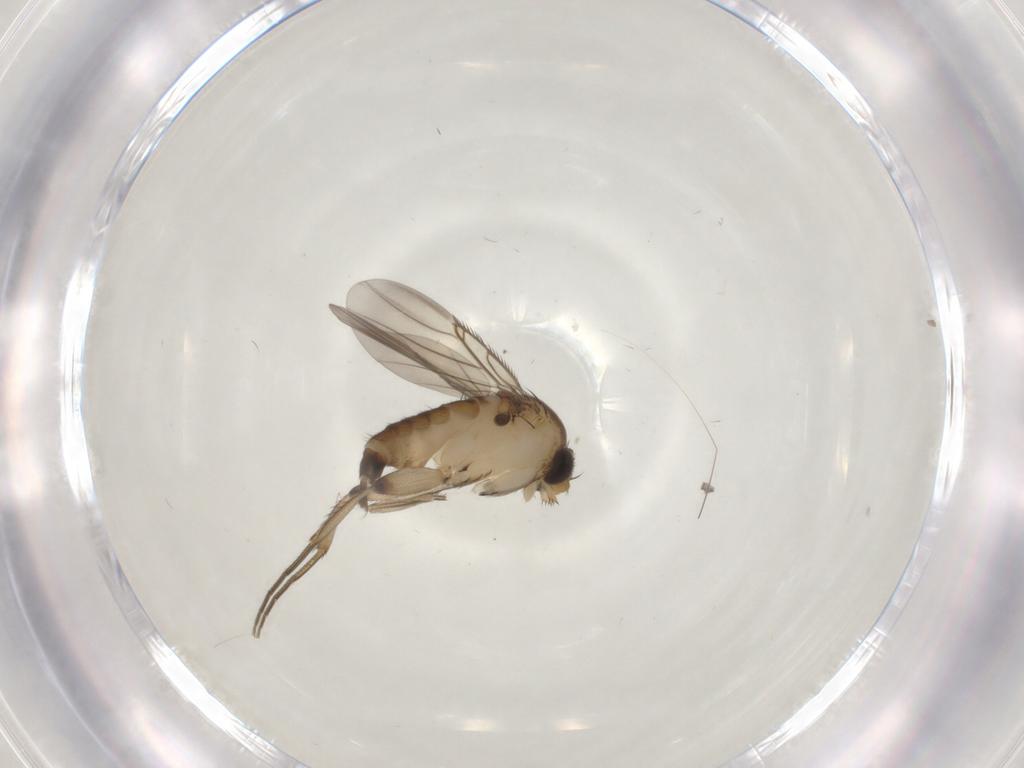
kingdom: Animalia
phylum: Arthropoda
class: Insecta
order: Diptera
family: Phoridae
